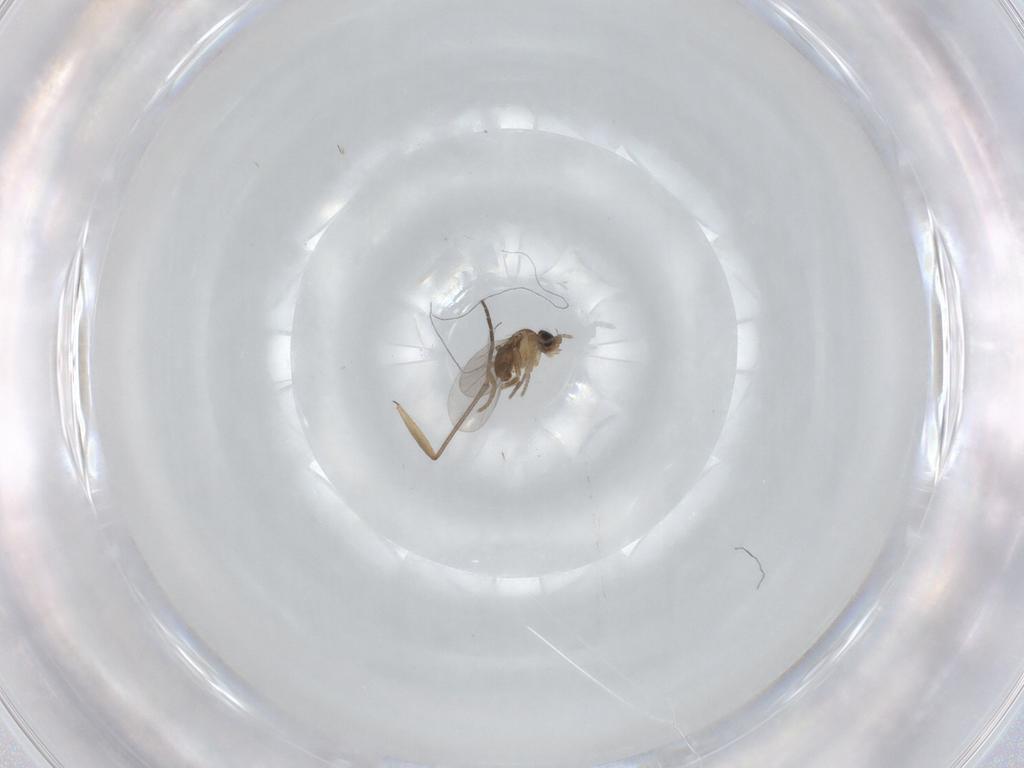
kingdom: Animalia
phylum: Arthropoda
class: Insecta
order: Diptera
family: Phoridae
